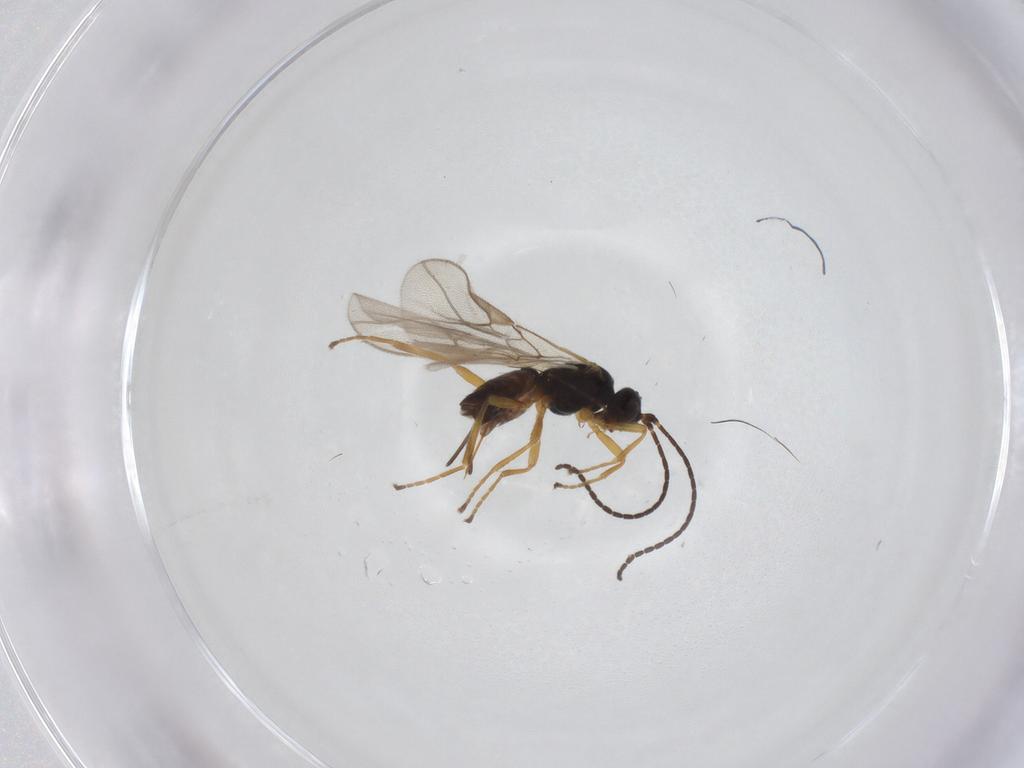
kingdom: Animalia
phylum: Arthropoda
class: Insecta
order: Hymenoptera
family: Braconidae
